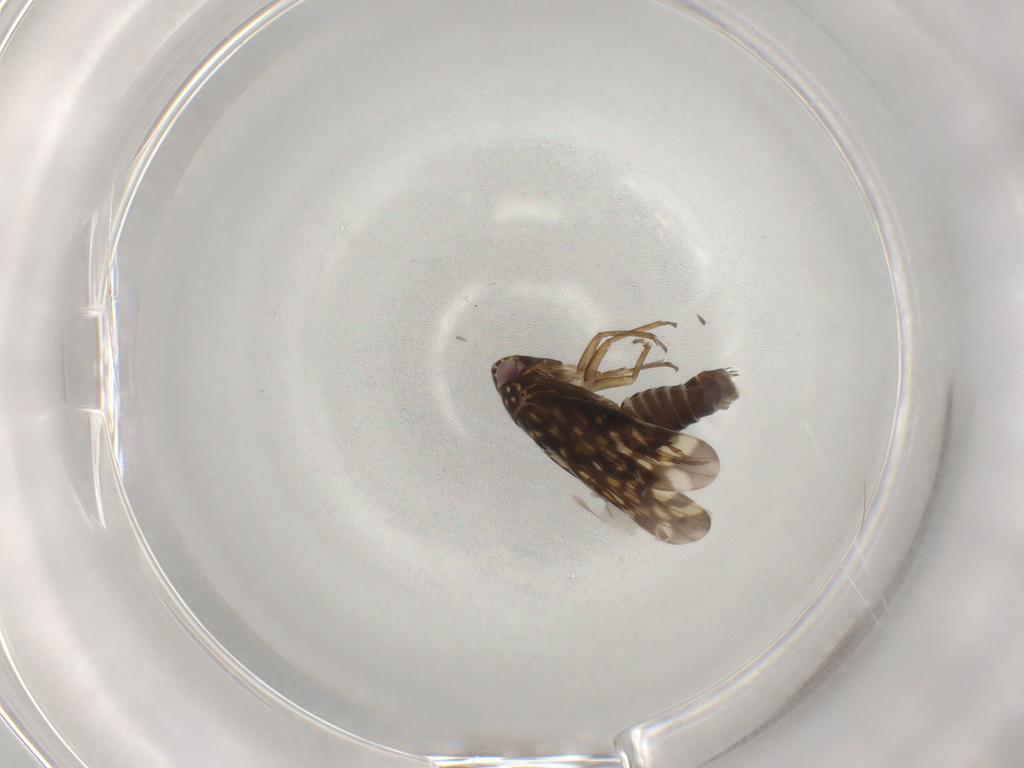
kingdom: Animalia
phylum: Arthropoda
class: Insecta
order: Hemiptera
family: Cicadellidae
